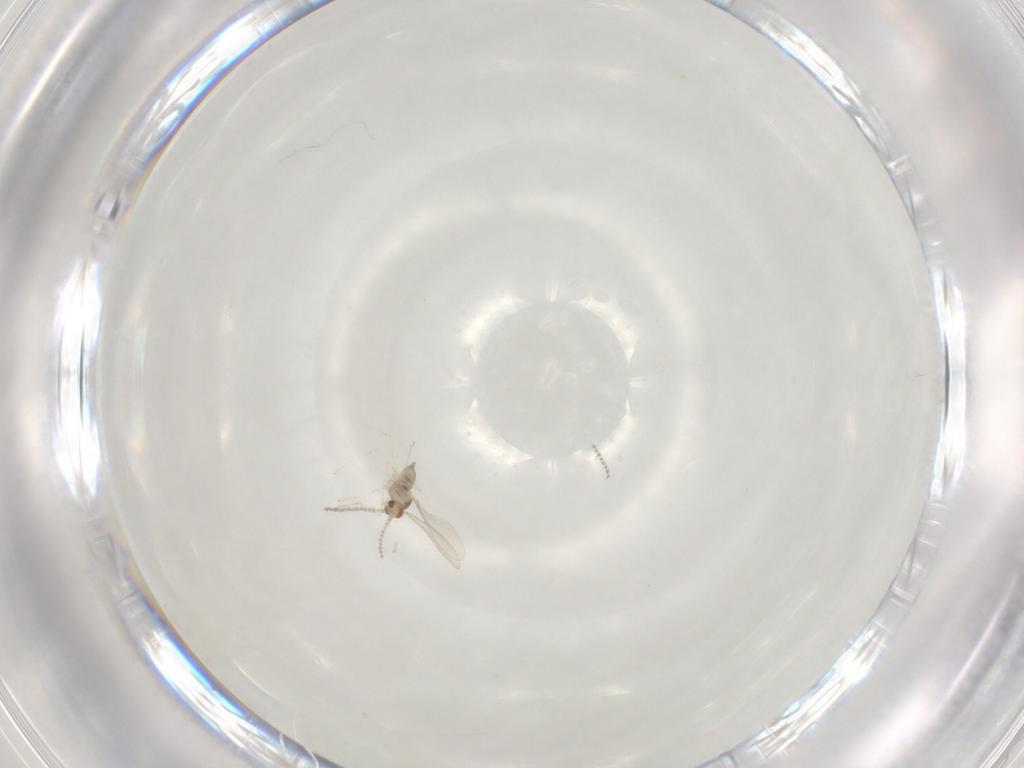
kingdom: Animalia
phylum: Arthropoda
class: Insecta
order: Diptera
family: Cecidomyiidae
